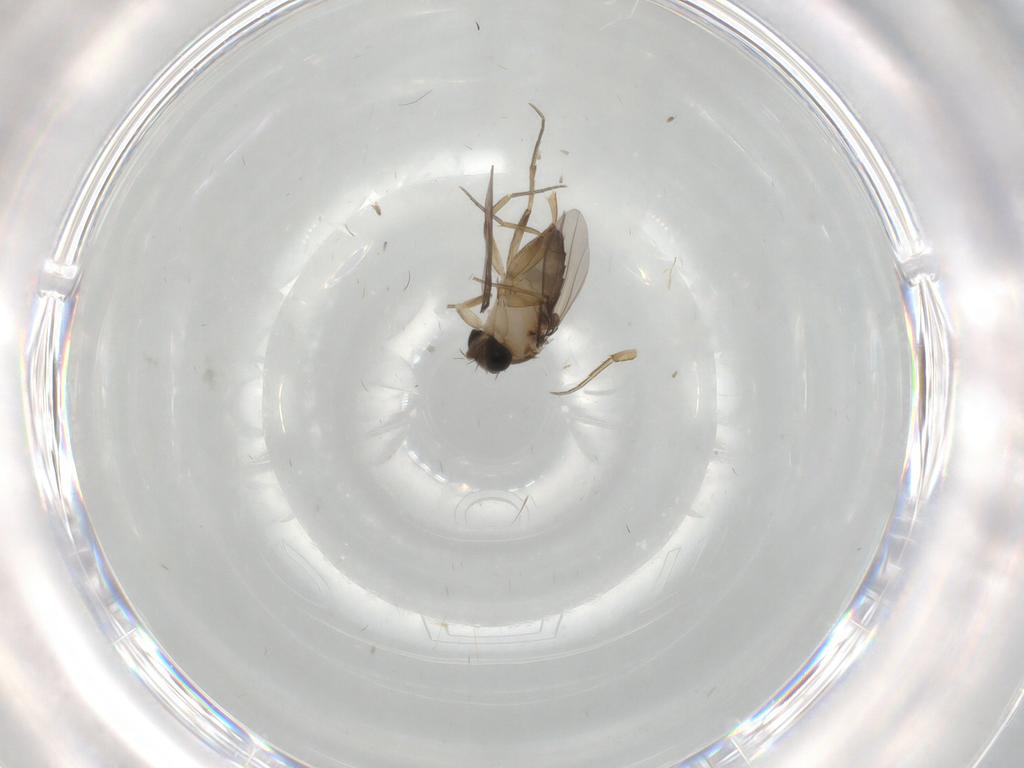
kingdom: Animalia
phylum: Arthropoda
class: Insecta
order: Diptera
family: Phoridae
